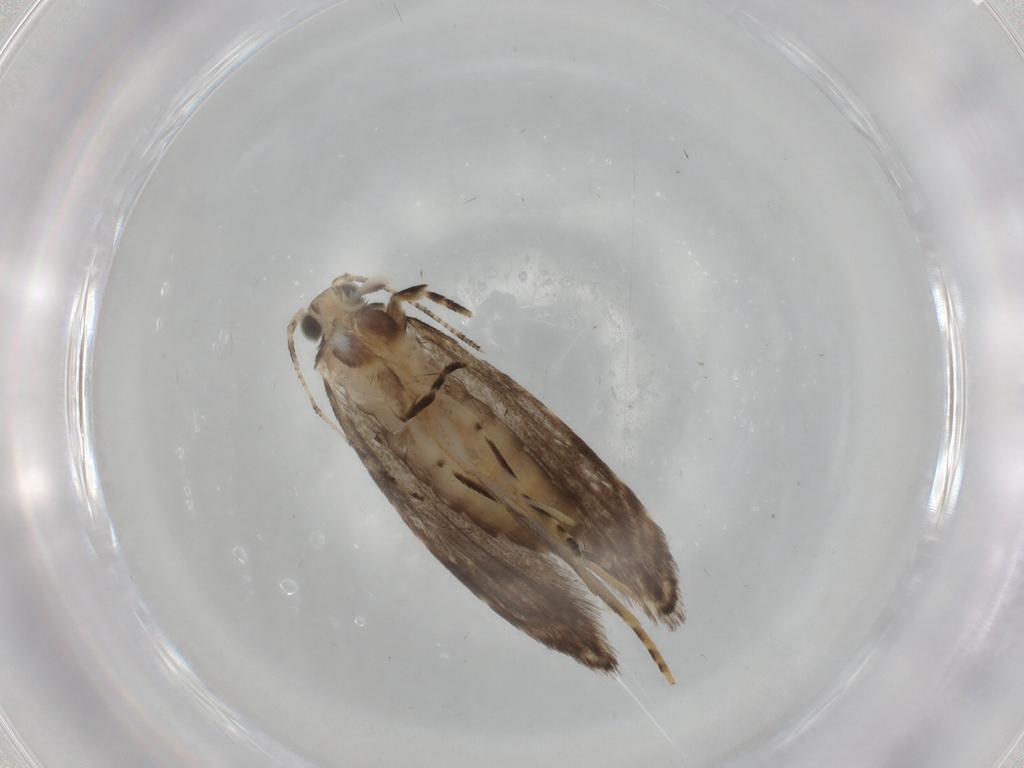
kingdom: Animalia
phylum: Arthropoda
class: Insecta
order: Lepidoptera
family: Tineidae
